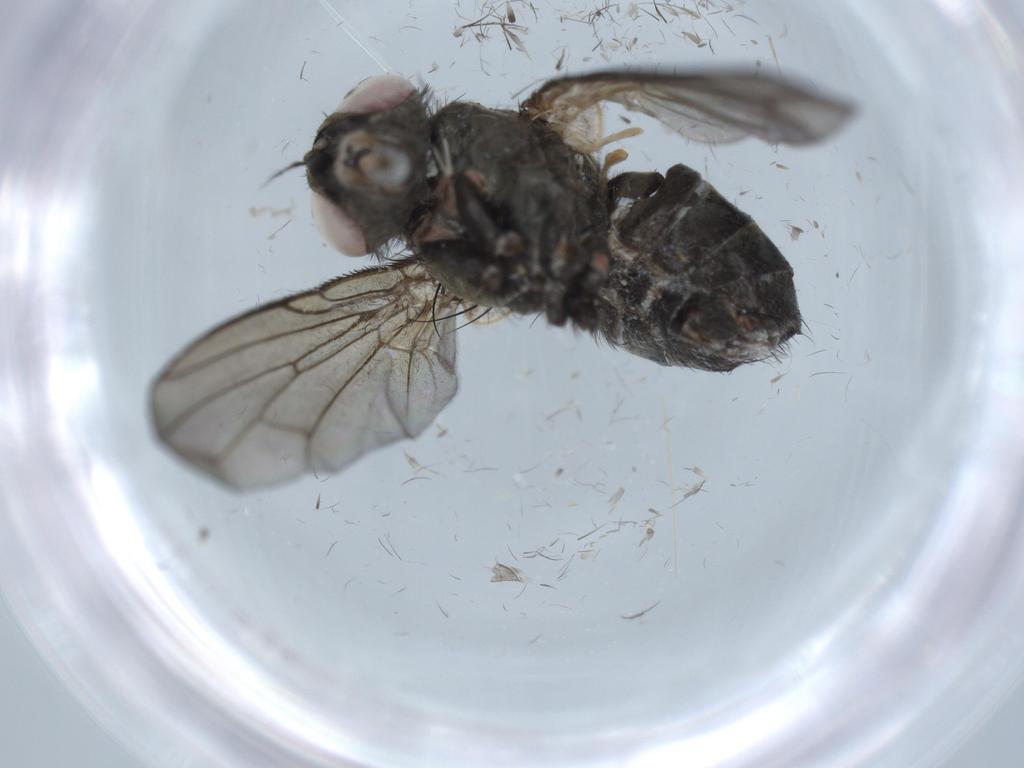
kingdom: Animalia
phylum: Arthropoda
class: Insecta
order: Diptera
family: Calliphoridae
